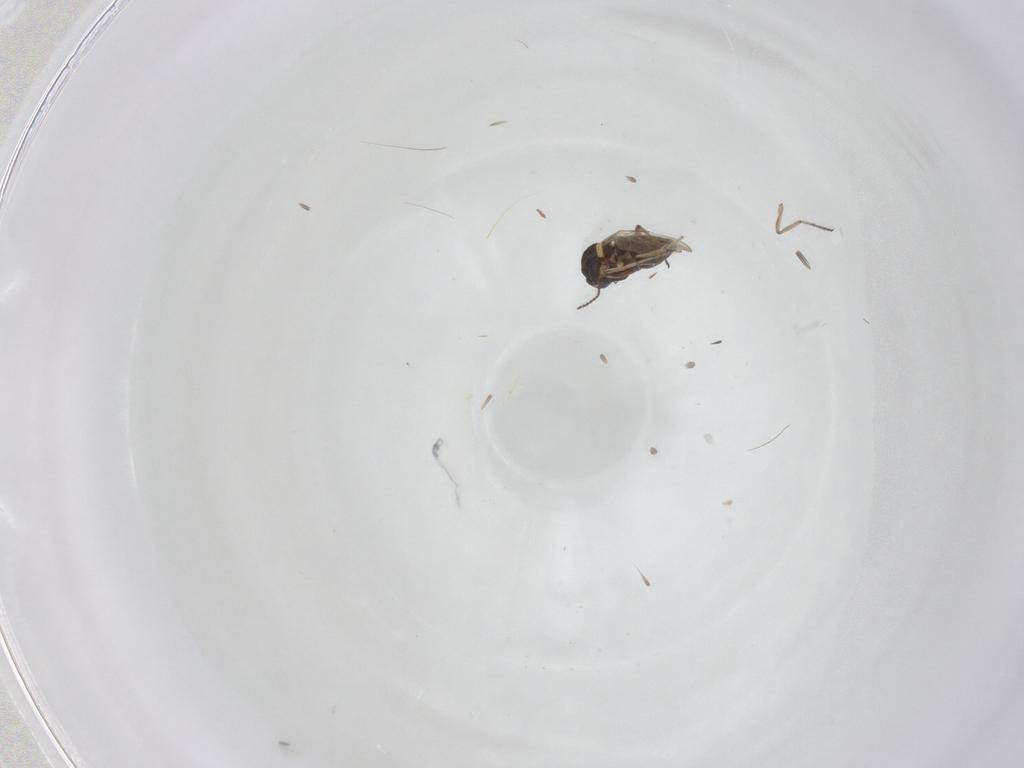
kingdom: Animalia
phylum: Arthropoda
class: Insecta
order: Diptera
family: Ceratopogonidae
